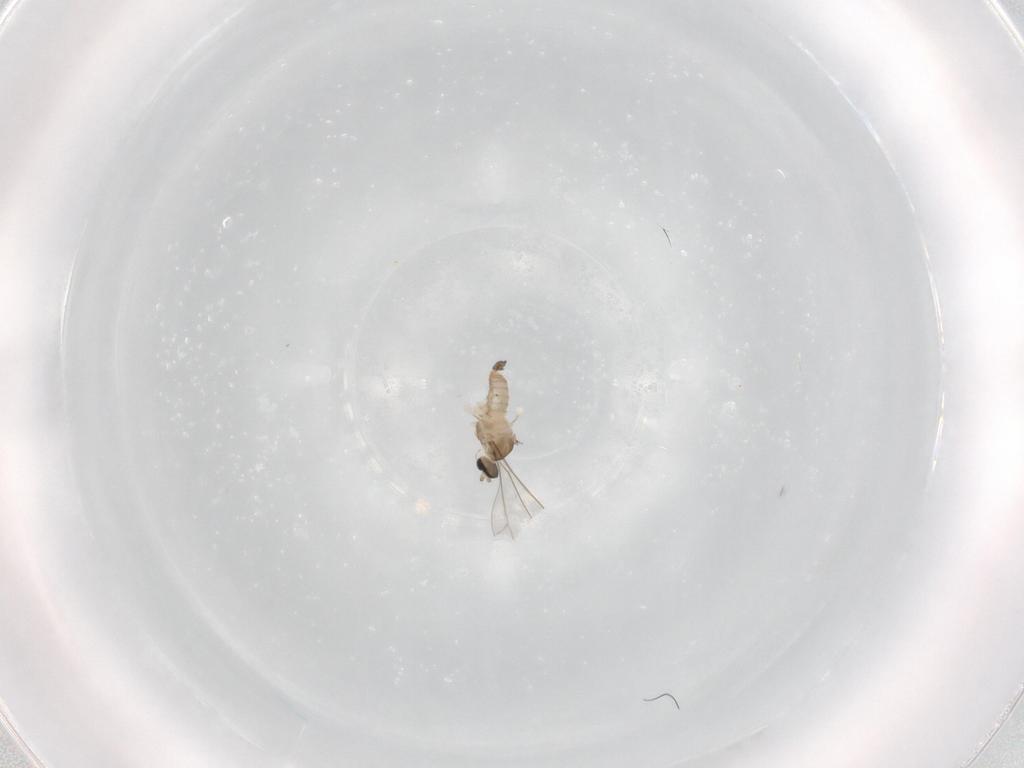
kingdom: Animalia
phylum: Arthropoda
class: Insecta
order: Diptera
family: Cecidomyiidae
